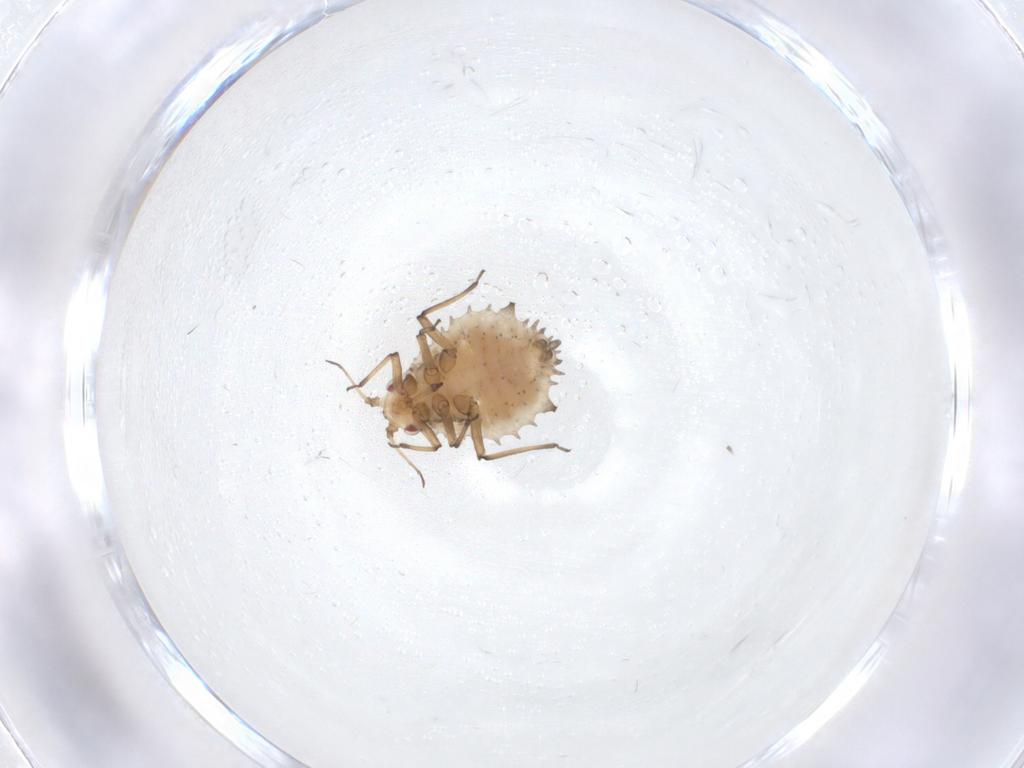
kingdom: Animalia
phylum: Arthropoda
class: Insecta
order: Hemiptera
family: Aphididae
